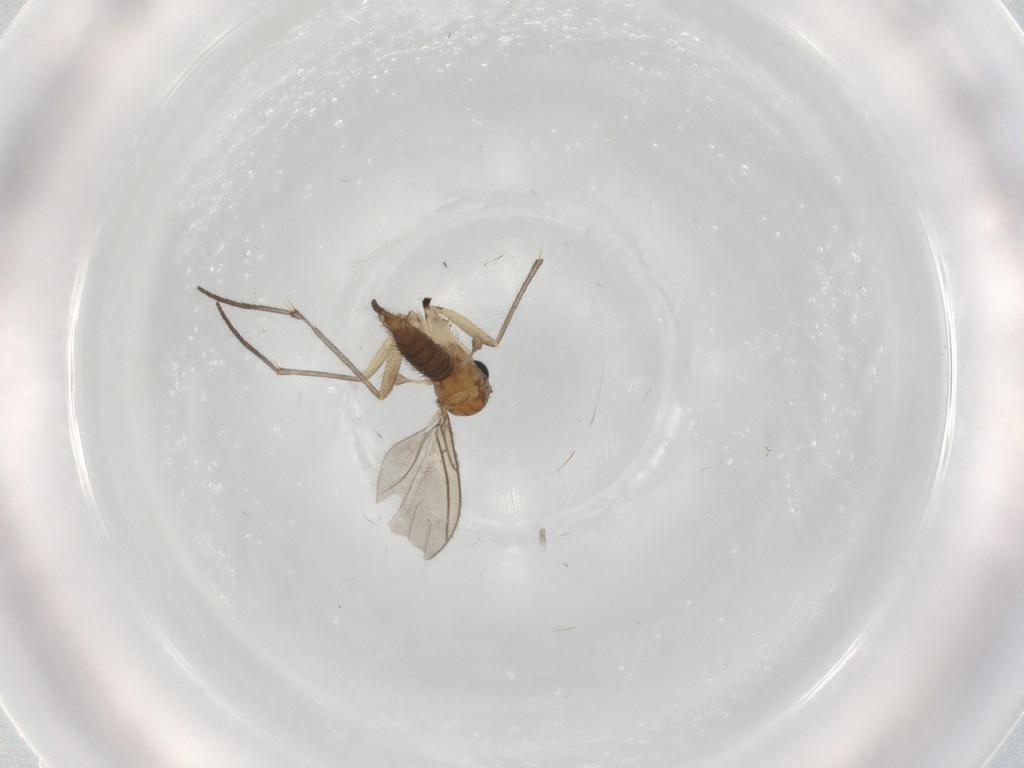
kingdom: Animalia
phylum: Arthropoda
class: Insecta
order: Diptera
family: Sciaridae
